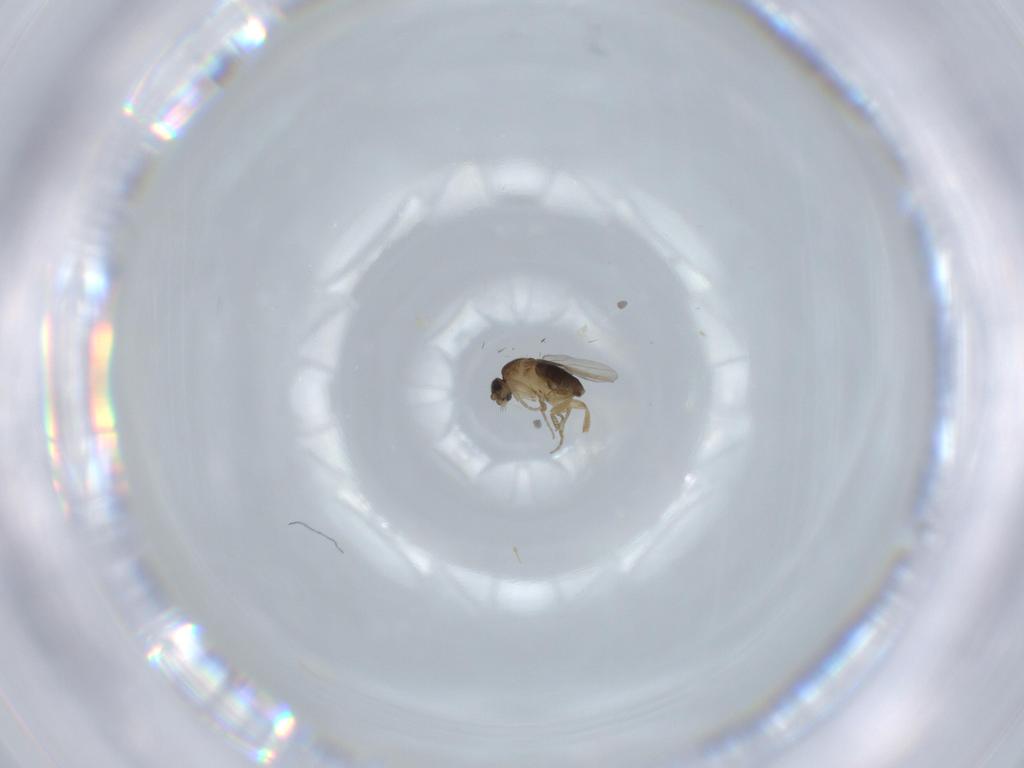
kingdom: Animalia
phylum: Arthropoda
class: Insecta
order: Diptera
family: Phoridae
